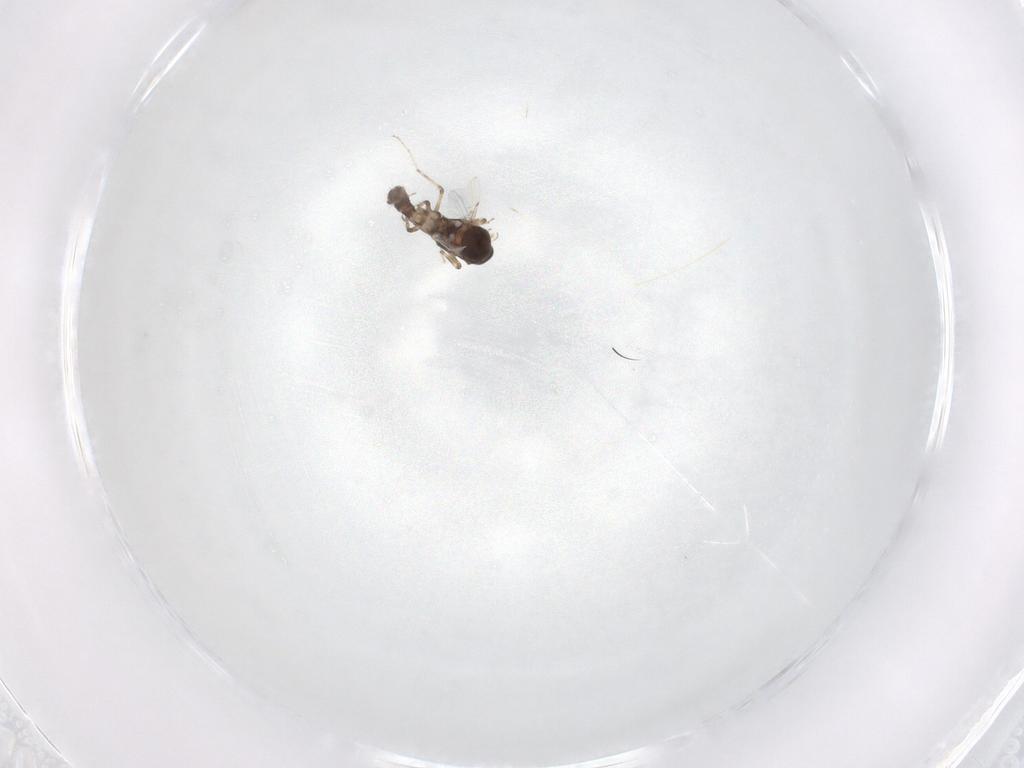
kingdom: Animalia
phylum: Arthropoda
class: Insecta
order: Diptera
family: Ceratopogonidae
